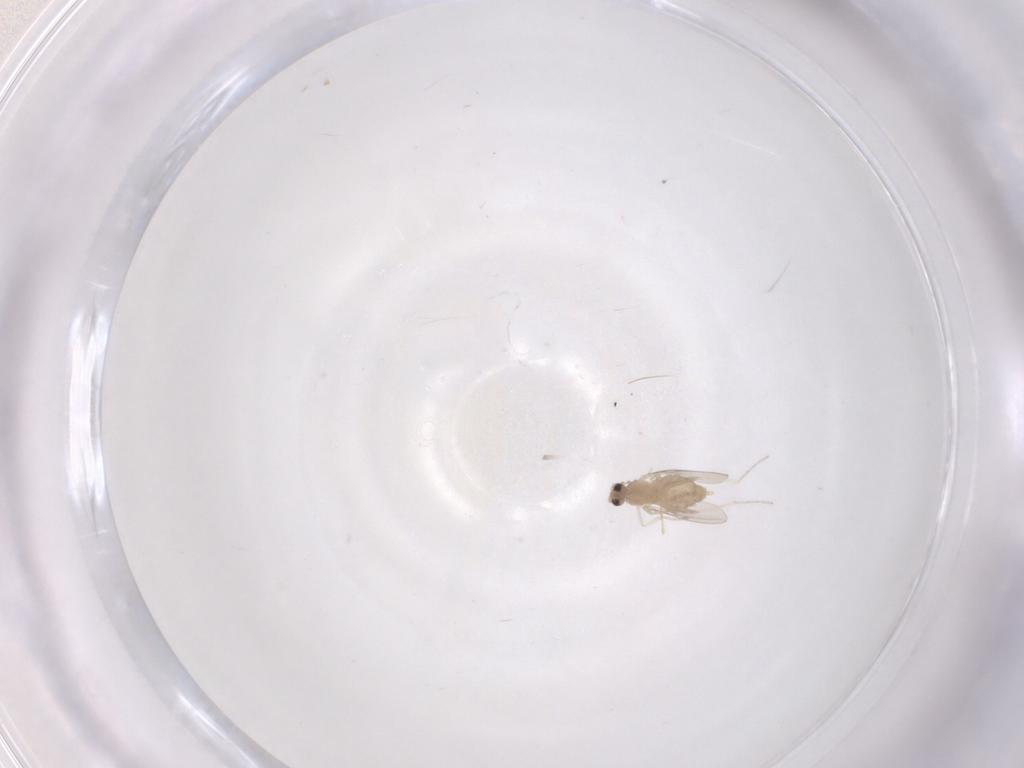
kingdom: Animalia
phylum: Arthropoda
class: Insecta
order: Diptera
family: Cecidomyiidae
